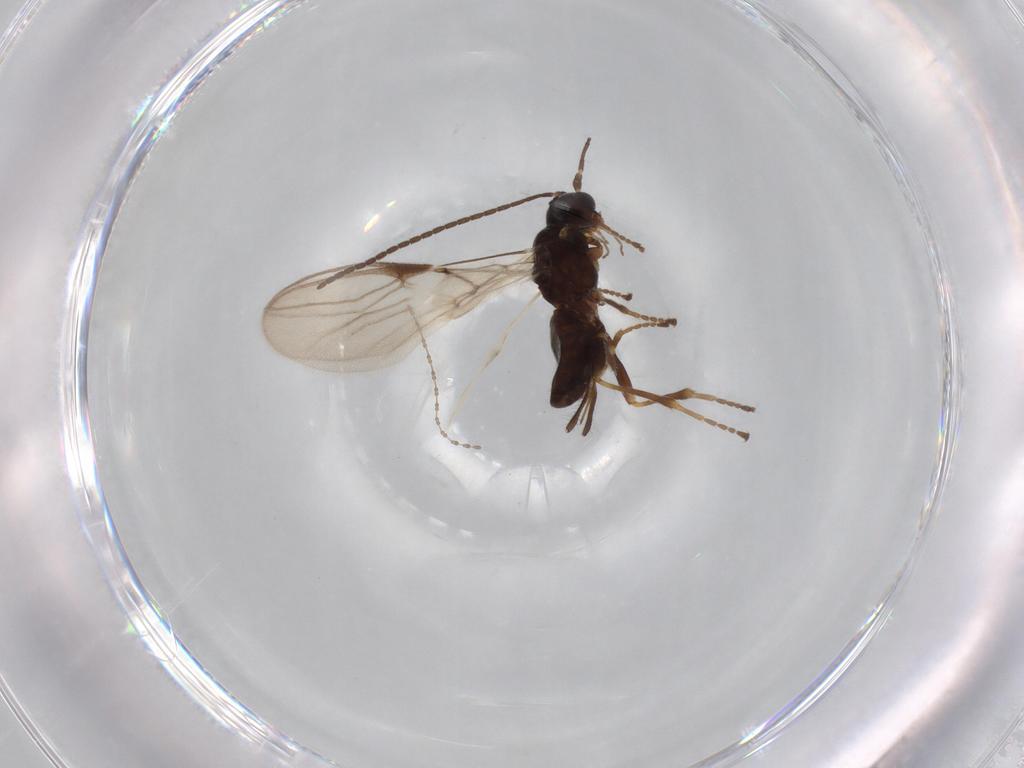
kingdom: Animalia
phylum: Arthropoda
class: Insecta
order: Hymenoptera
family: Braconidae
